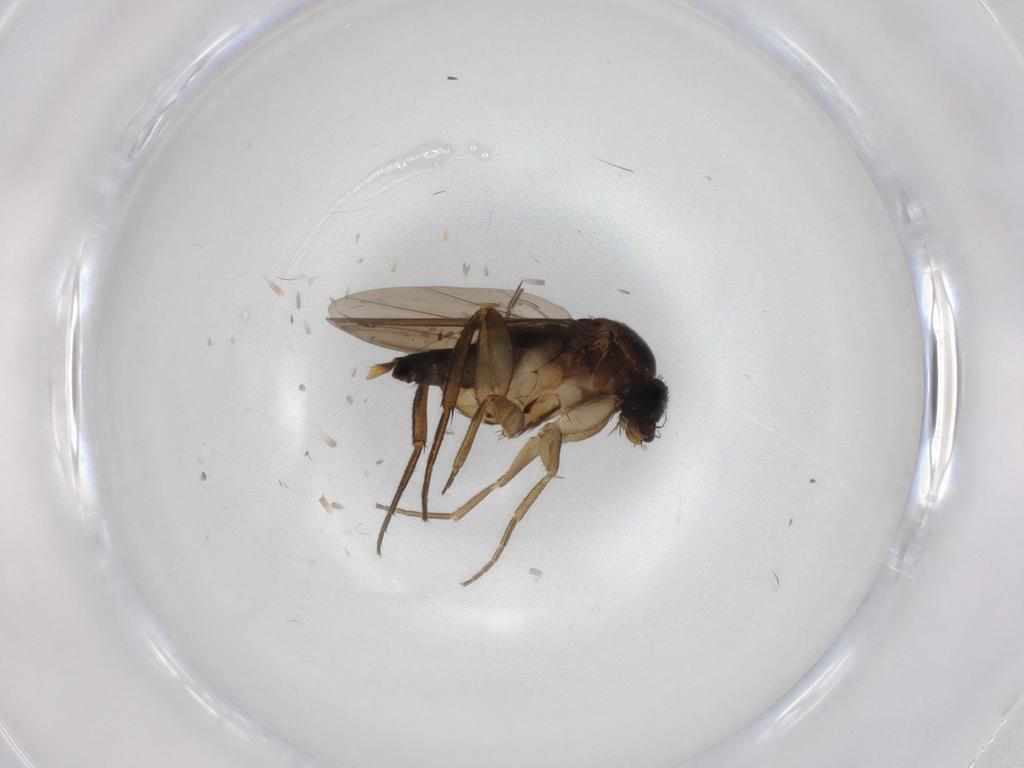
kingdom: Animalia
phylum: Arthropoda
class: Insecta
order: Diptera
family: Phoridae
